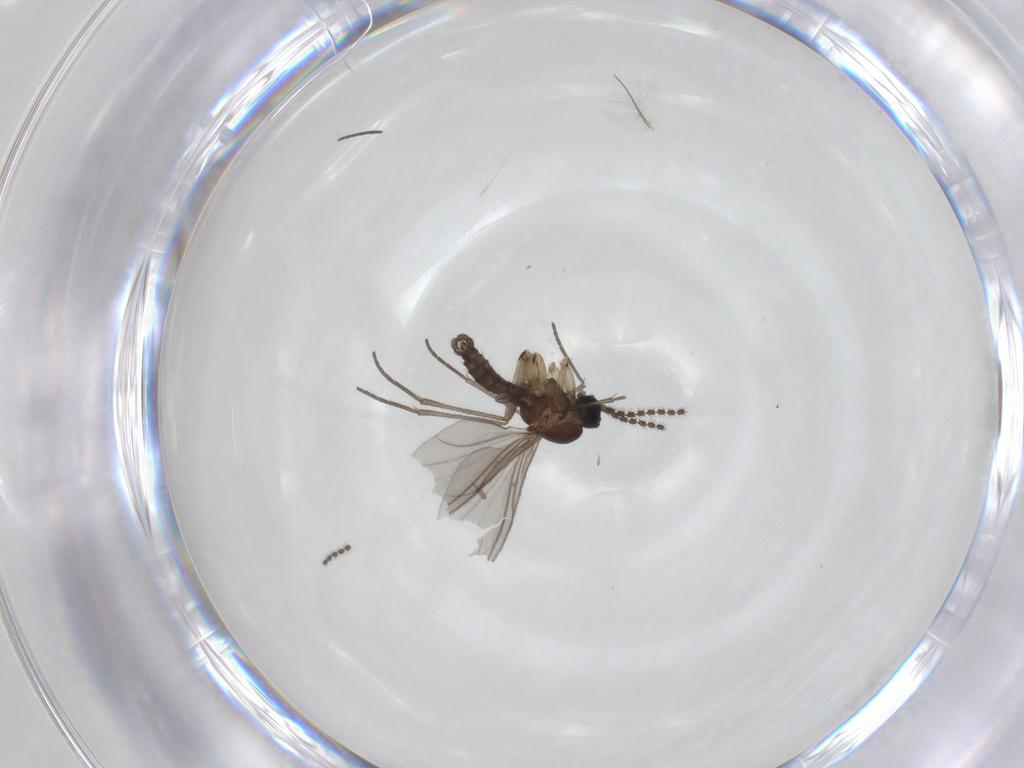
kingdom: Animalia
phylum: Arthropoda
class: Insecta
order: Diptera
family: Sciaridae
